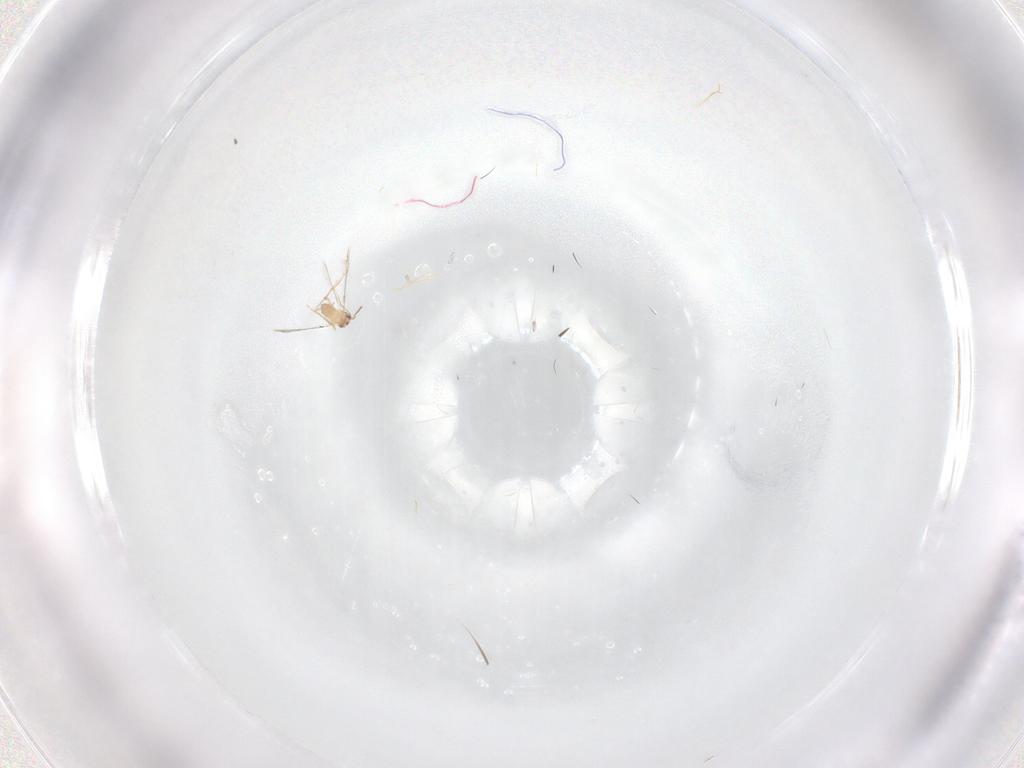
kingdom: Animalia
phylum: Arthropoda
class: Insecta
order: Hymenoptera
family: Mymaridae
